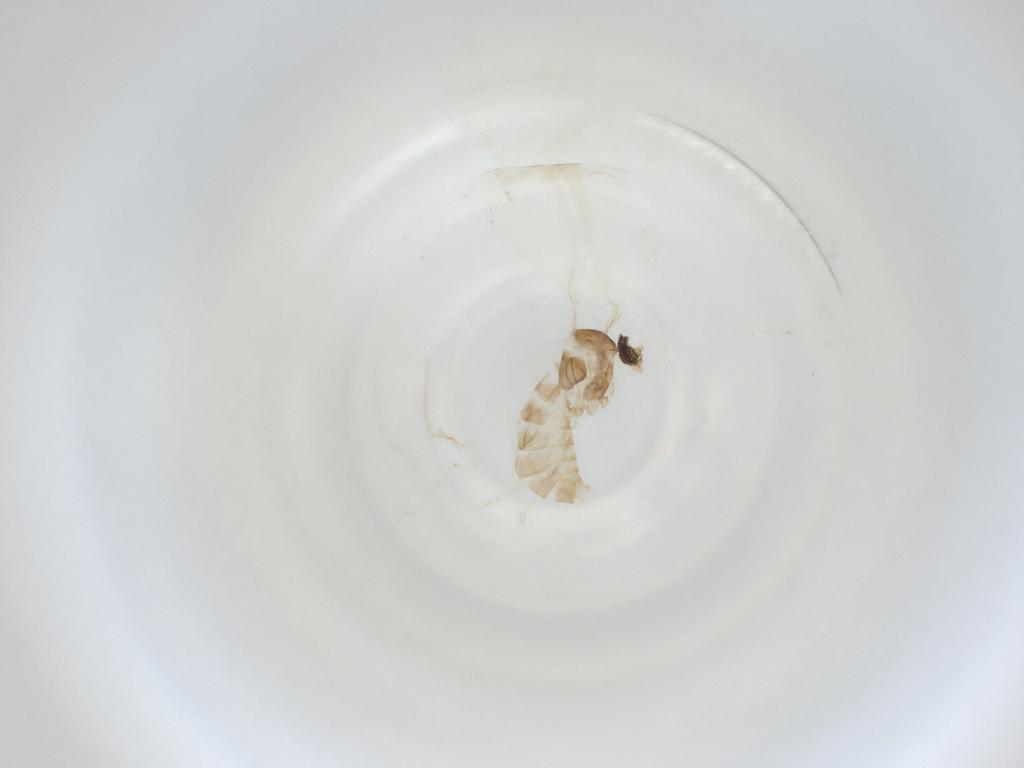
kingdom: Animalia
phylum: Arthropoda
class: Insecta
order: Diptera
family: Cecidomyiidae
